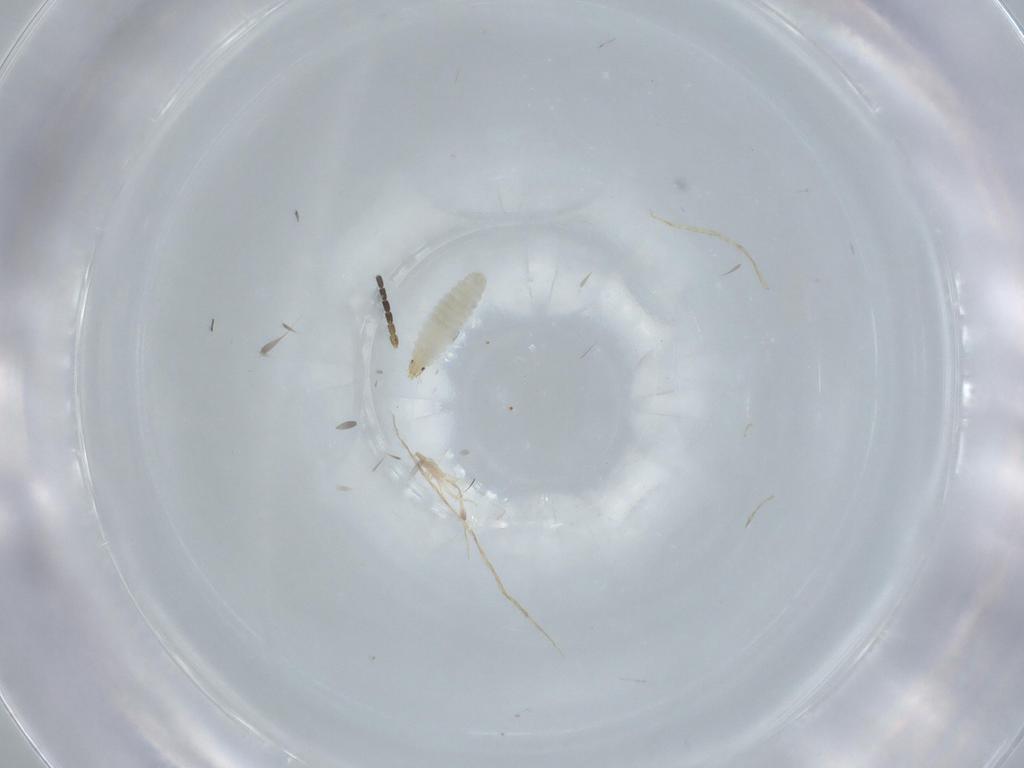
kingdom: Animalia
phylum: Arthropoda
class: Insecta
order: Diptera
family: Sciaridae
